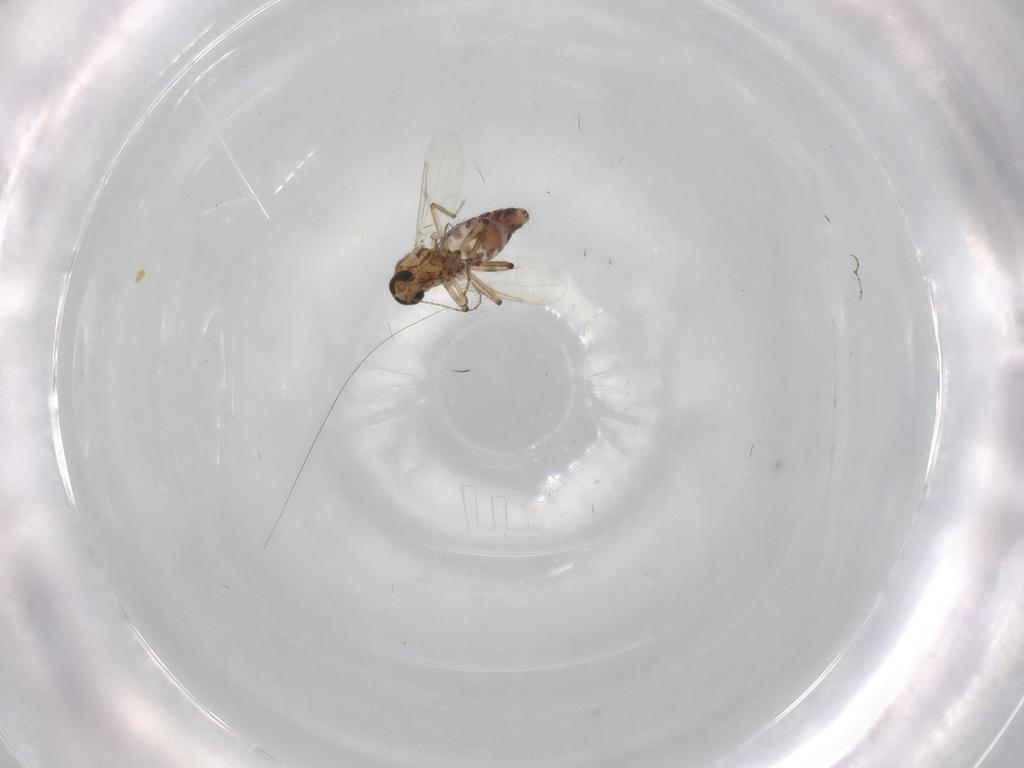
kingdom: Animalia
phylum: Arthropoda
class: Insecta
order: Diptera
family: Ceratopogonidae
